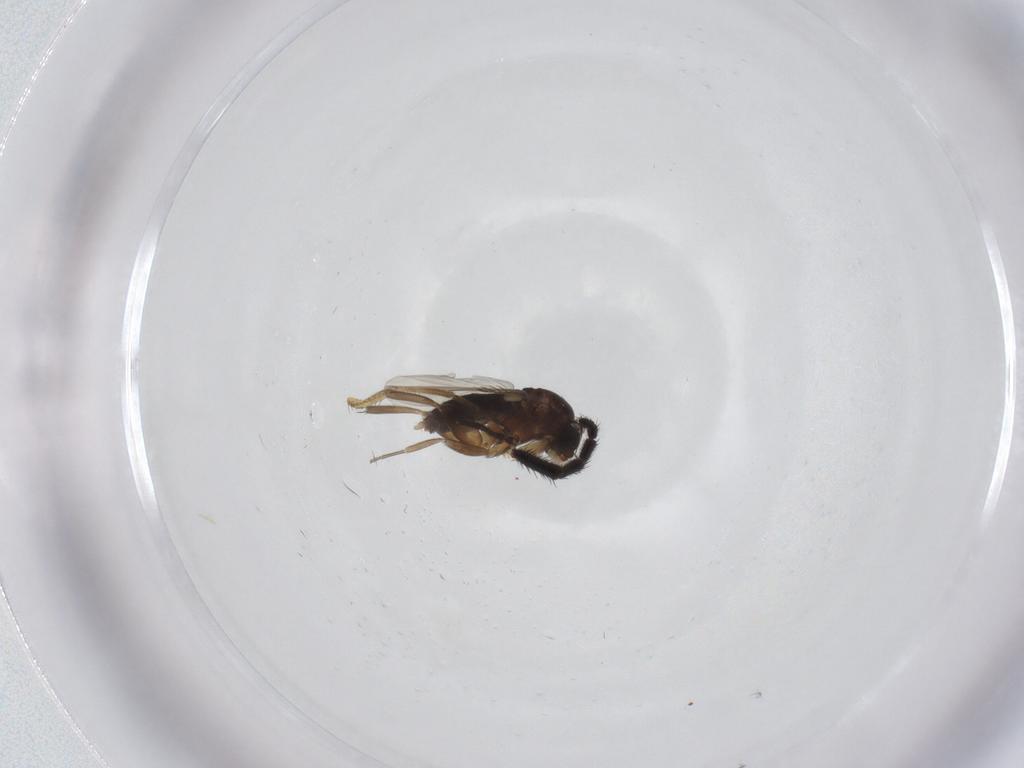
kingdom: Animalia
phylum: Arthropoda
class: Insecta
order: Diptera
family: Phoridae
